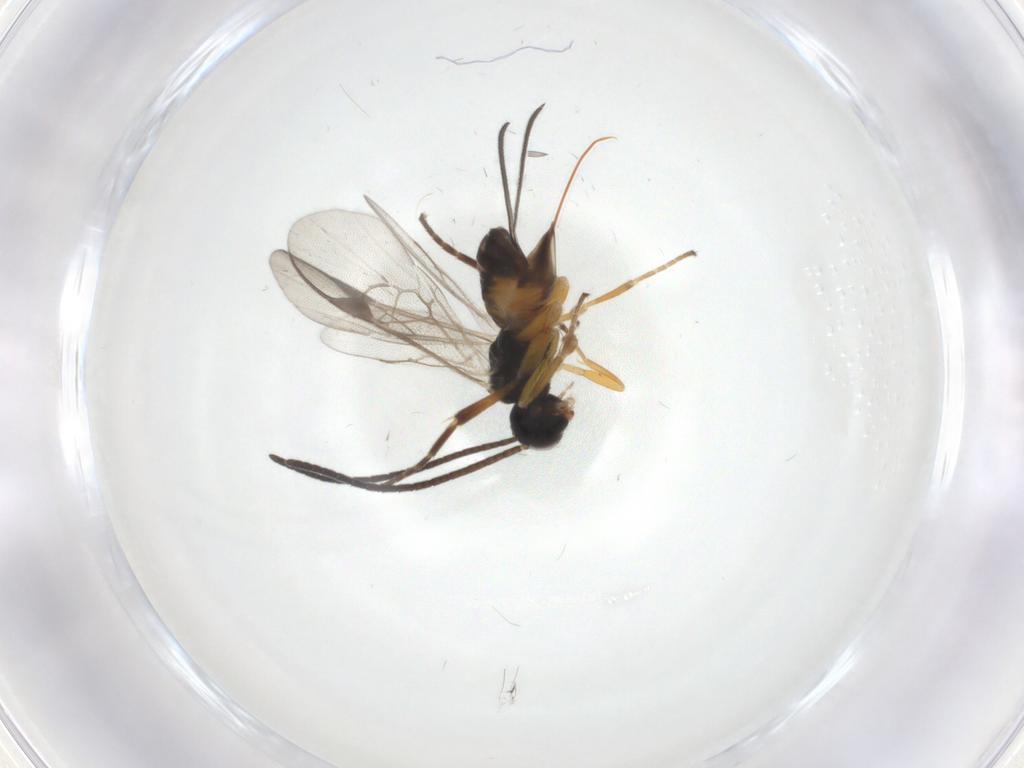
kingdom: Animalia
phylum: Arthropoda
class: Insecta
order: Hymenoptera
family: Braconidae
